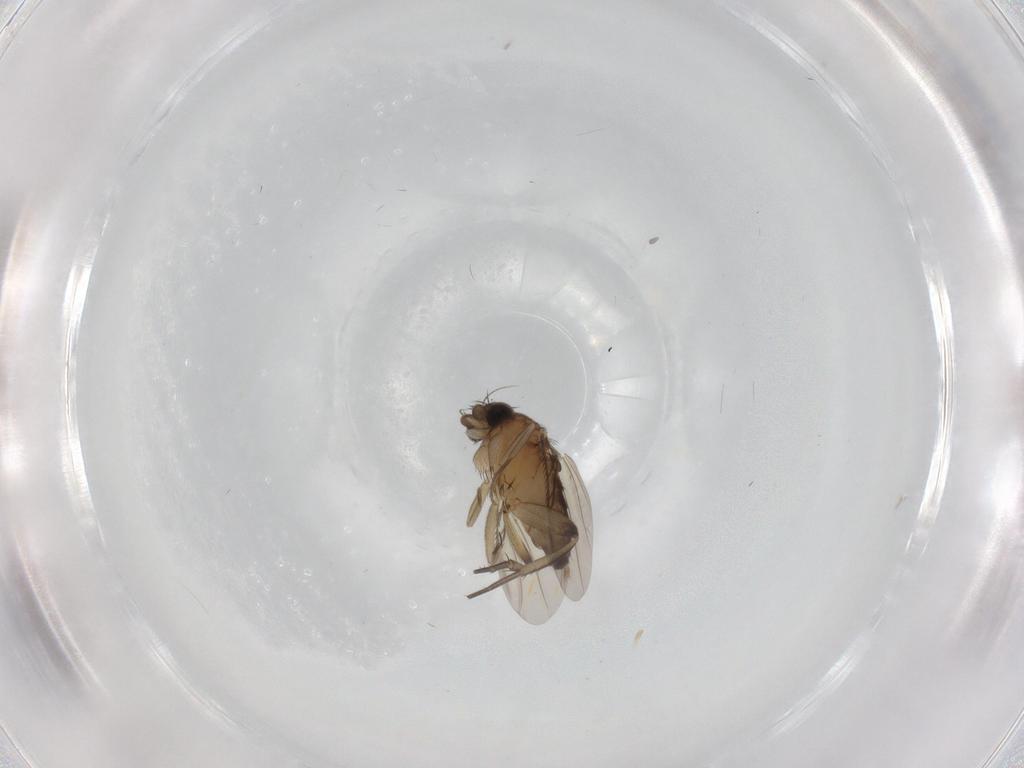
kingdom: Animalia
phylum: Arthropoda
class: Insecta
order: Diptera
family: Phoridae
